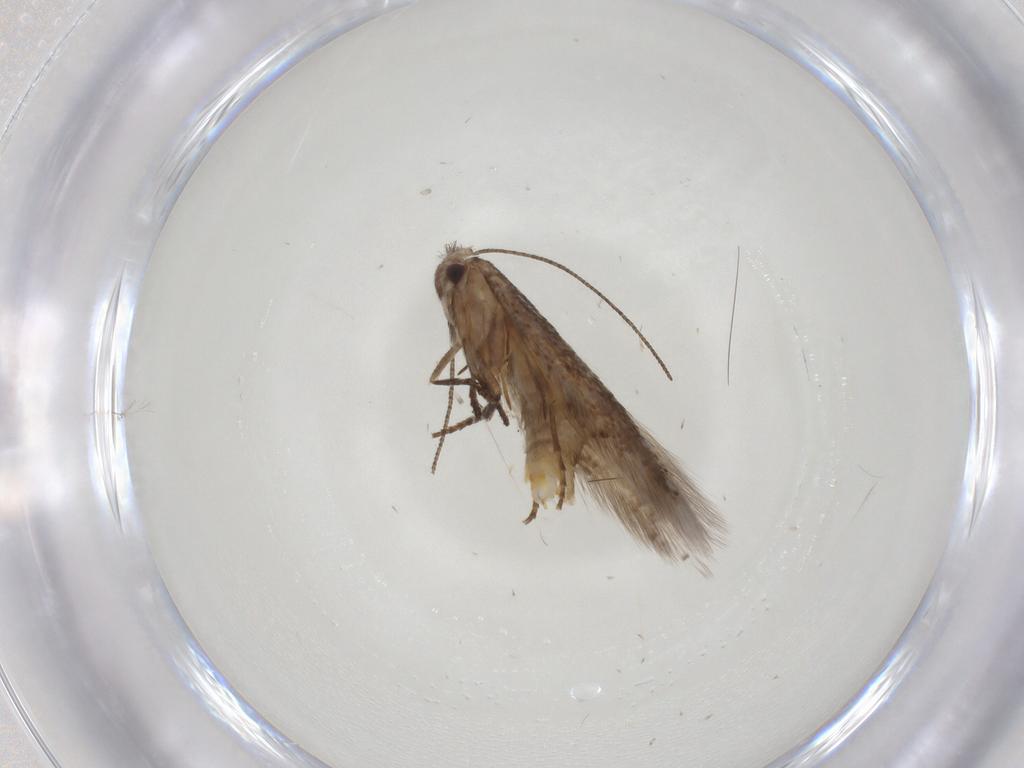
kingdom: Animalia
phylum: Arthropoda
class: Insecta
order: Lepidoptera
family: Bucculatricidae
